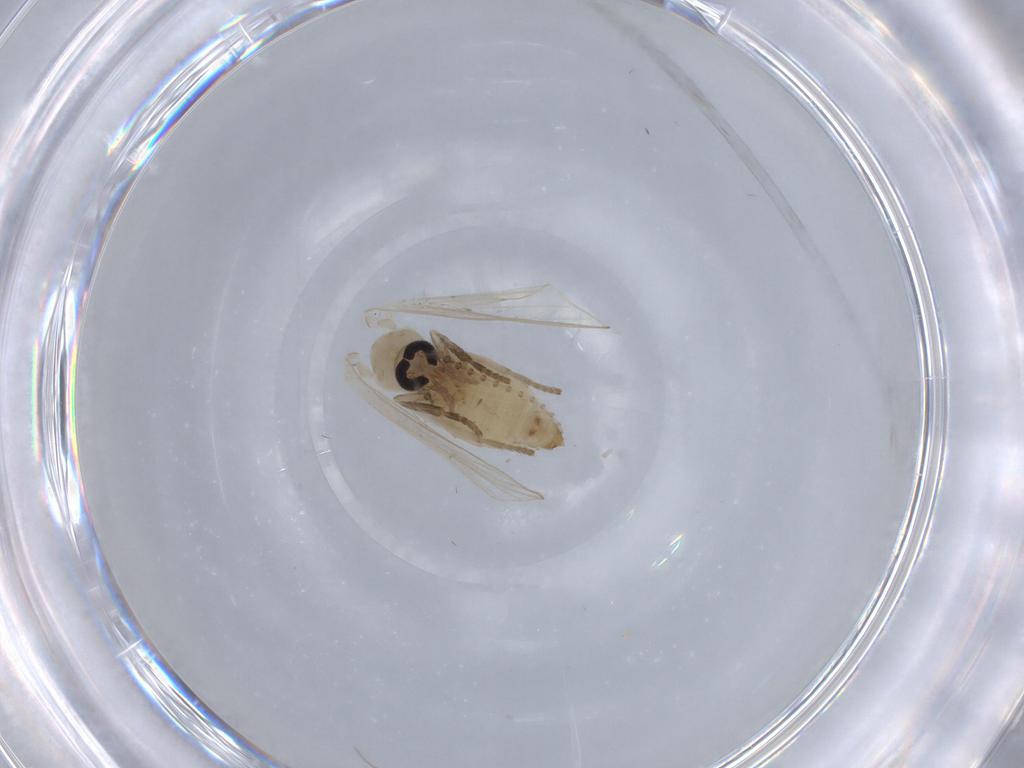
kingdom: Animalia
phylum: Arthropoda
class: Insecta
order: Diptera
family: Psychodidae
